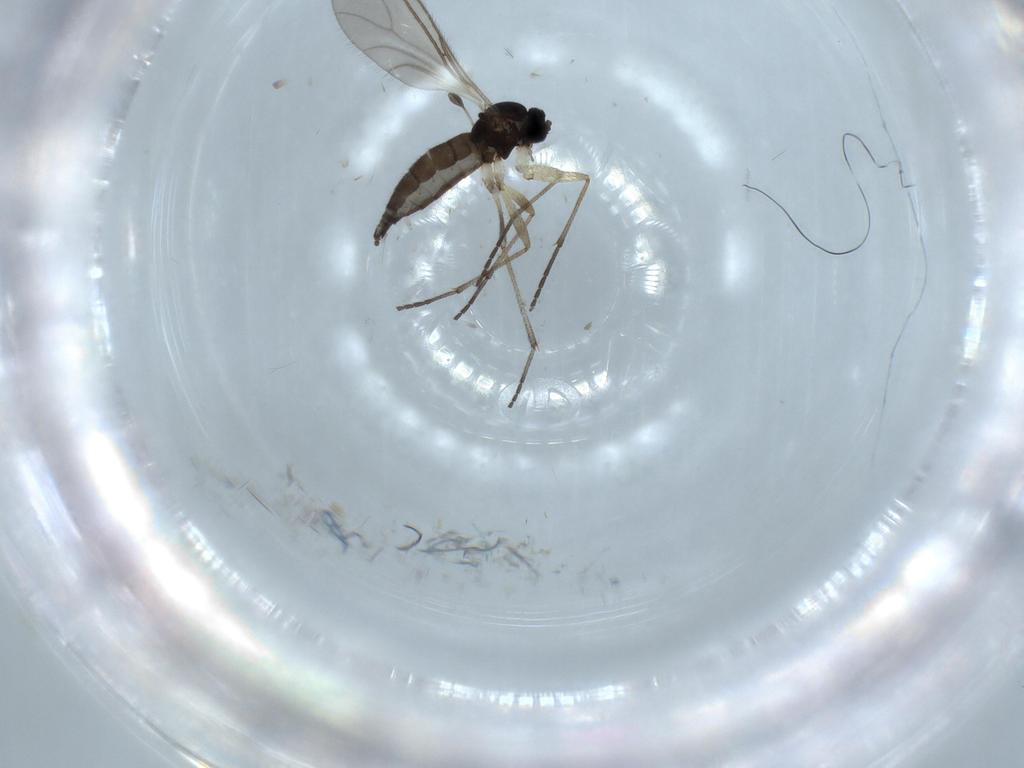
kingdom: Animalia
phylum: Arthropoda
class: Insecta
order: Diptera
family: Sciaridae
